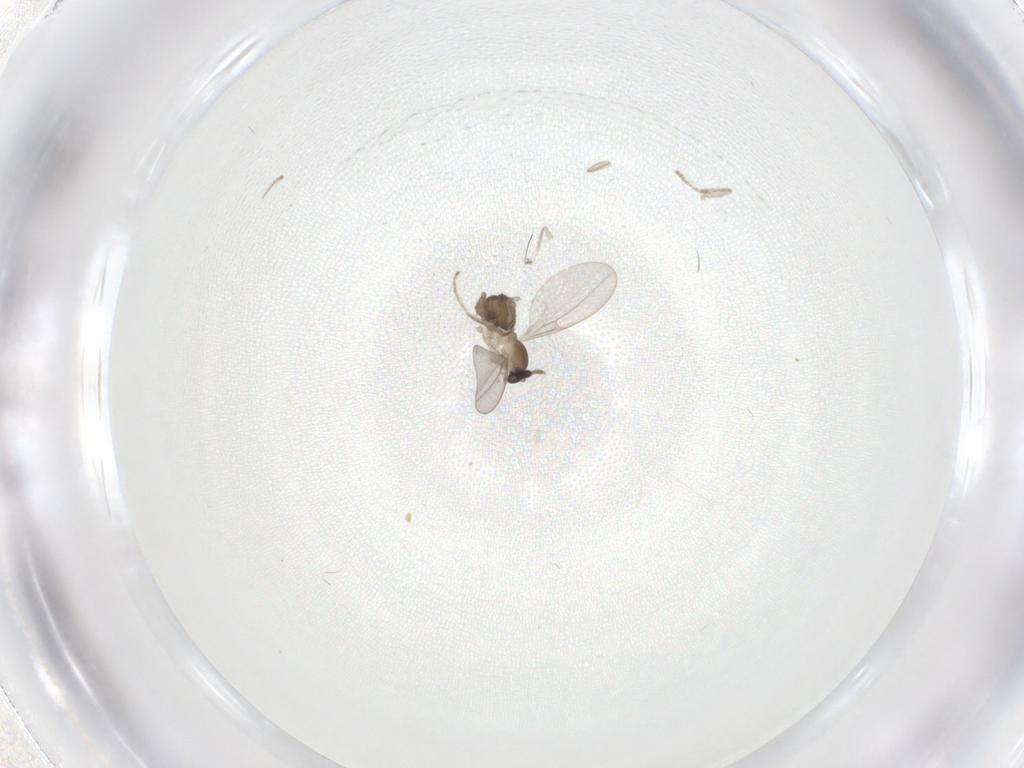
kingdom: Animalia
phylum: Arthropoda
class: Insecta
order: Diptera
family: Cecidomyiidae
